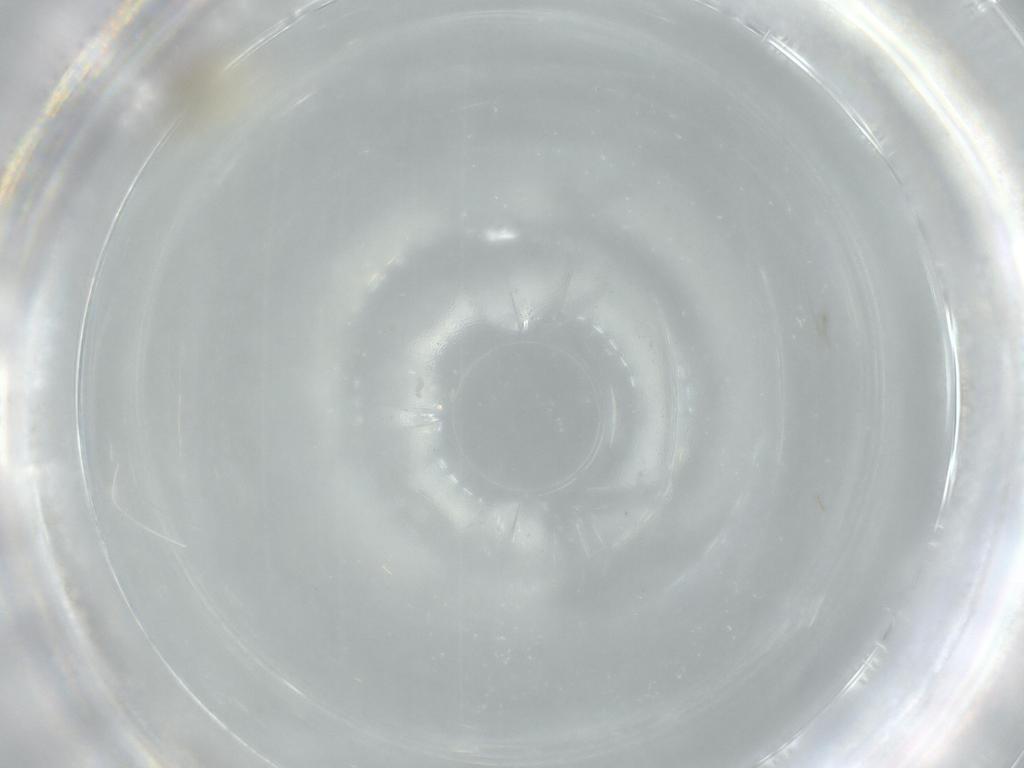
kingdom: Animalia
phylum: Arthropoda
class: Insecta
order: Diptera
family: Cecidomyiidae
